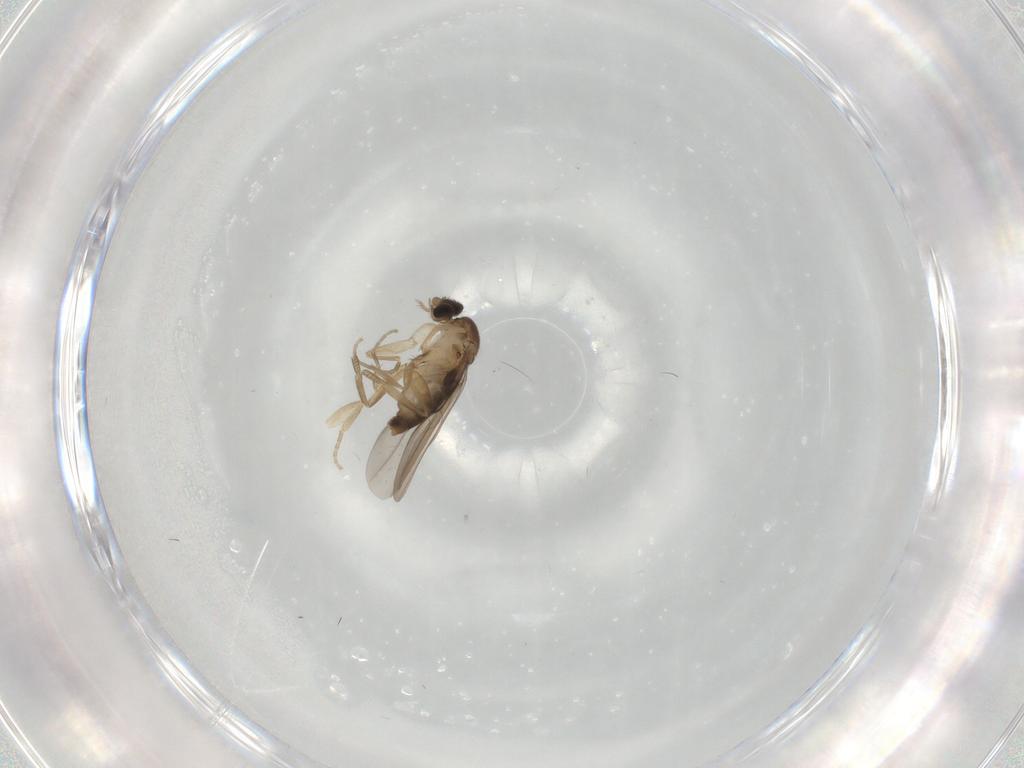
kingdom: Animalia
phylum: Arthropoda
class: Insecta
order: Diptera
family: Phoridae
